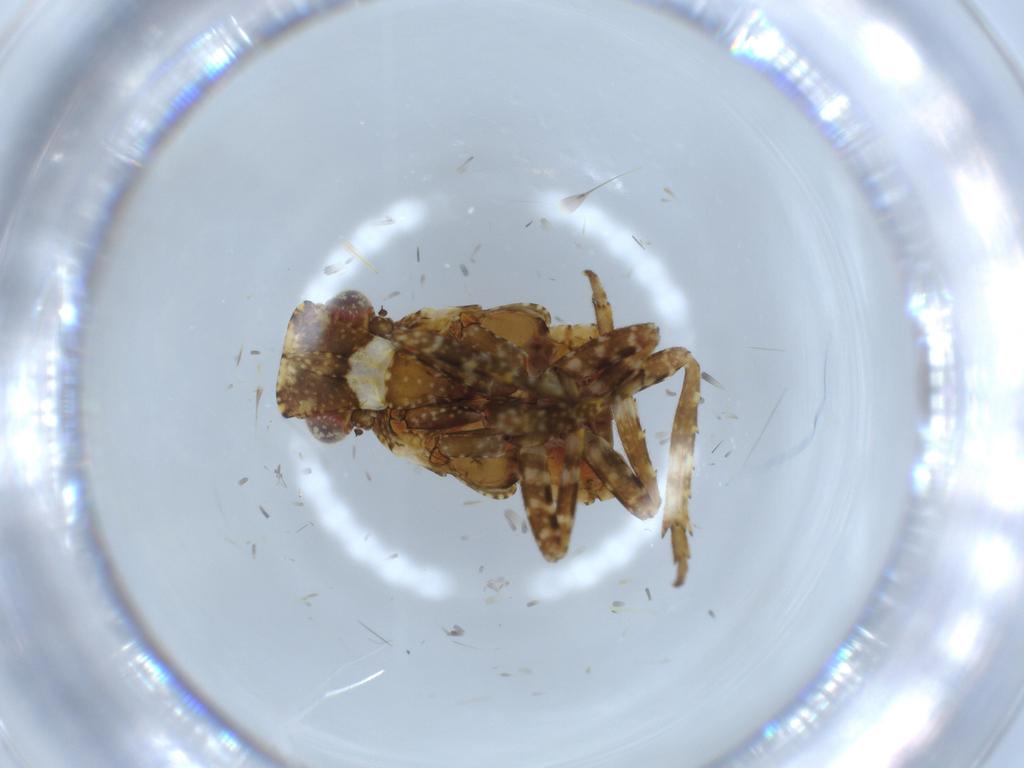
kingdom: Animalia
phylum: Arthropoda
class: Insecta
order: Hemiptera
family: Fulgoridae
